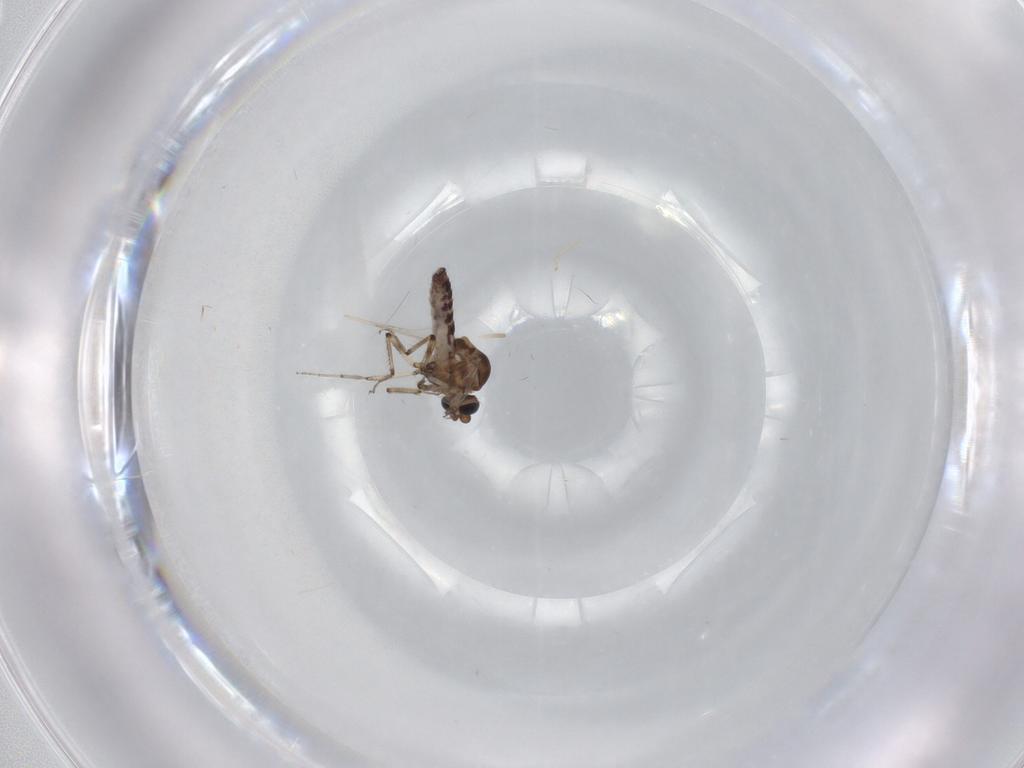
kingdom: Animalia
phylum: Arthropoda
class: Insecta
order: Diptera
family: Ceratopogonidae
